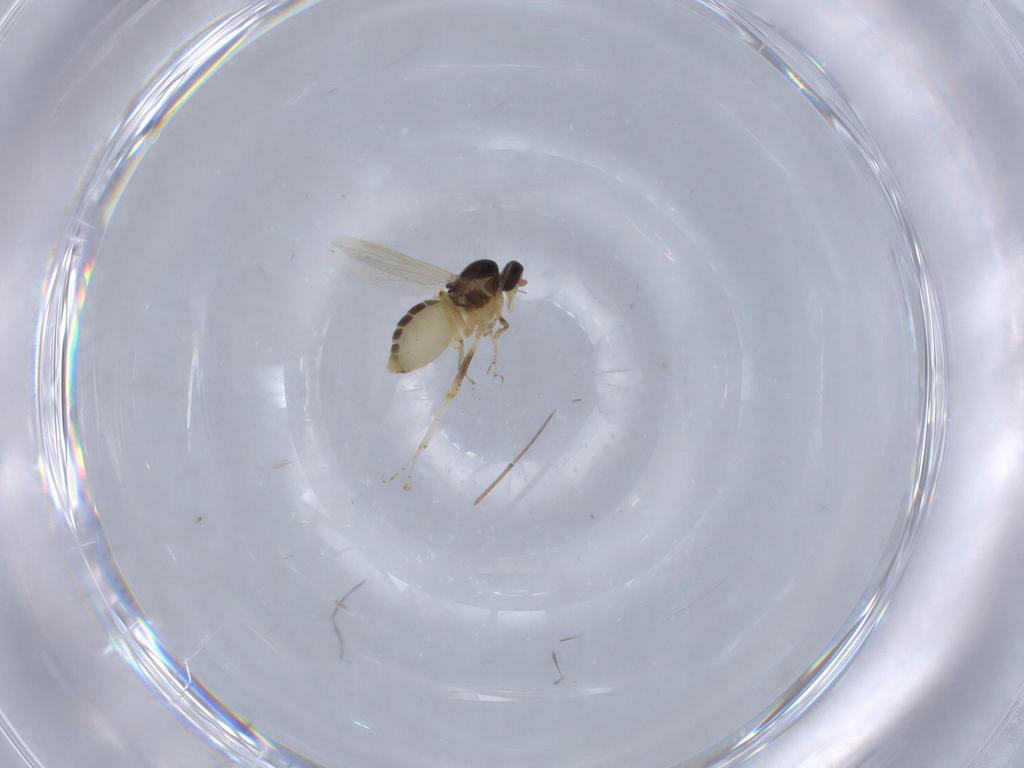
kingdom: Animalia
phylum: Arthropoda
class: Insecta
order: Diptera
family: Ceratopogonidae
